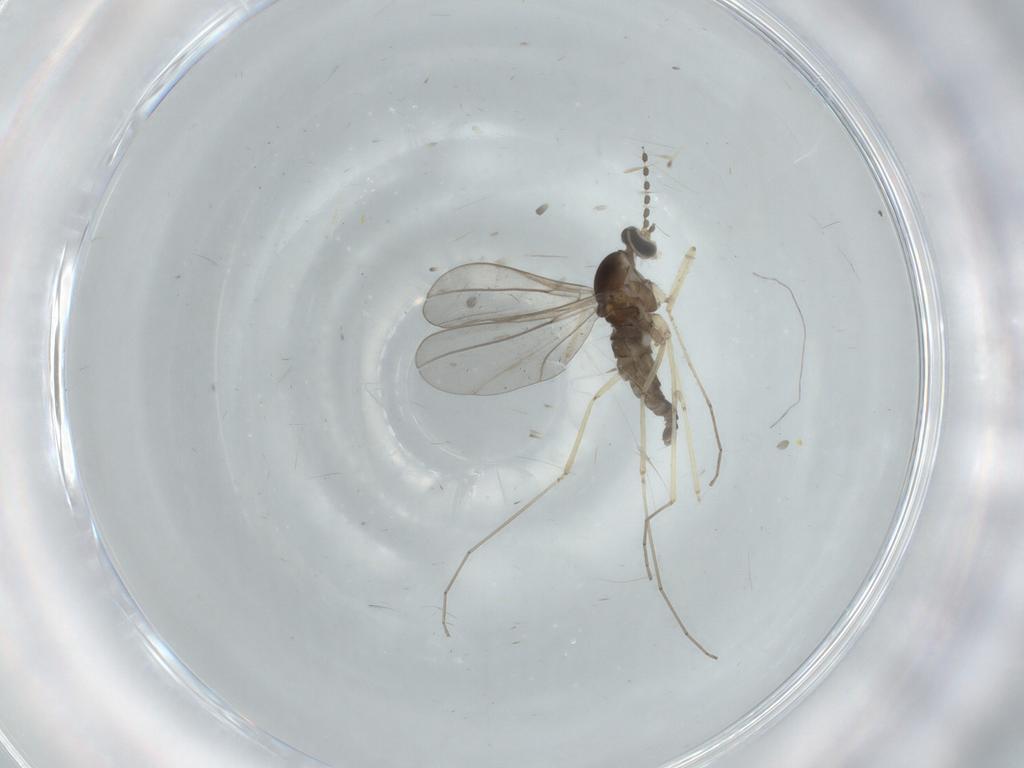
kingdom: Animalia
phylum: Arthropoda
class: Insecta
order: Diptera
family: Cecidomyiidae
